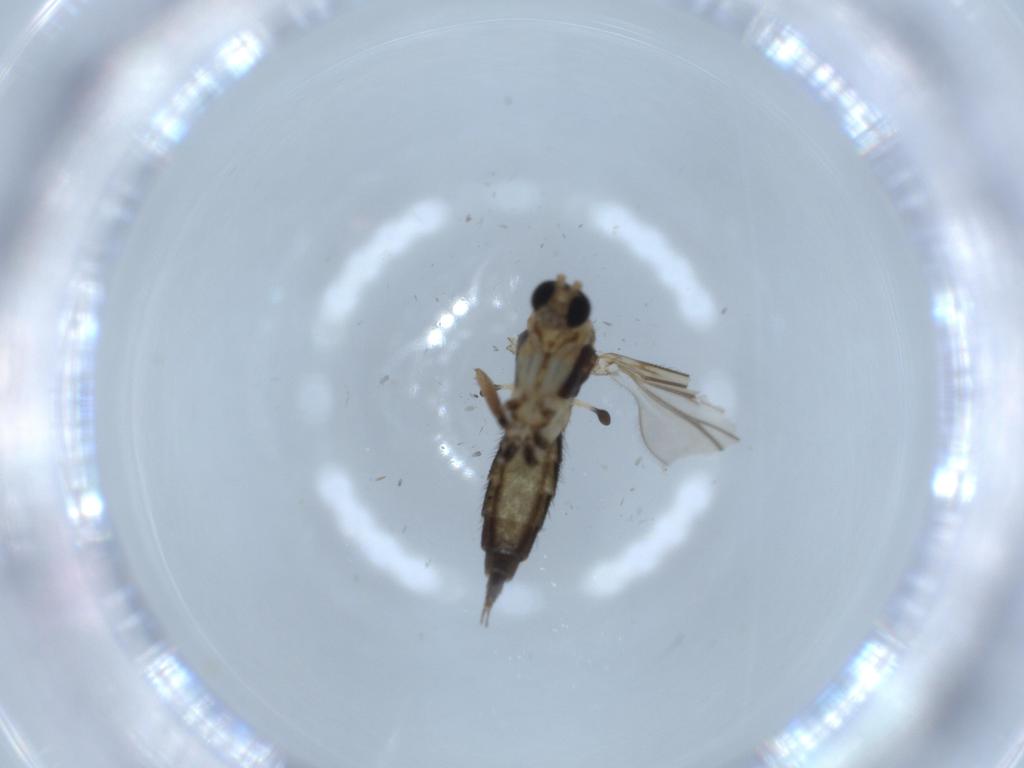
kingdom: Animalia
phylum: Arthropoda
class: Insecta
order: Diptera
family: Sciaridae
